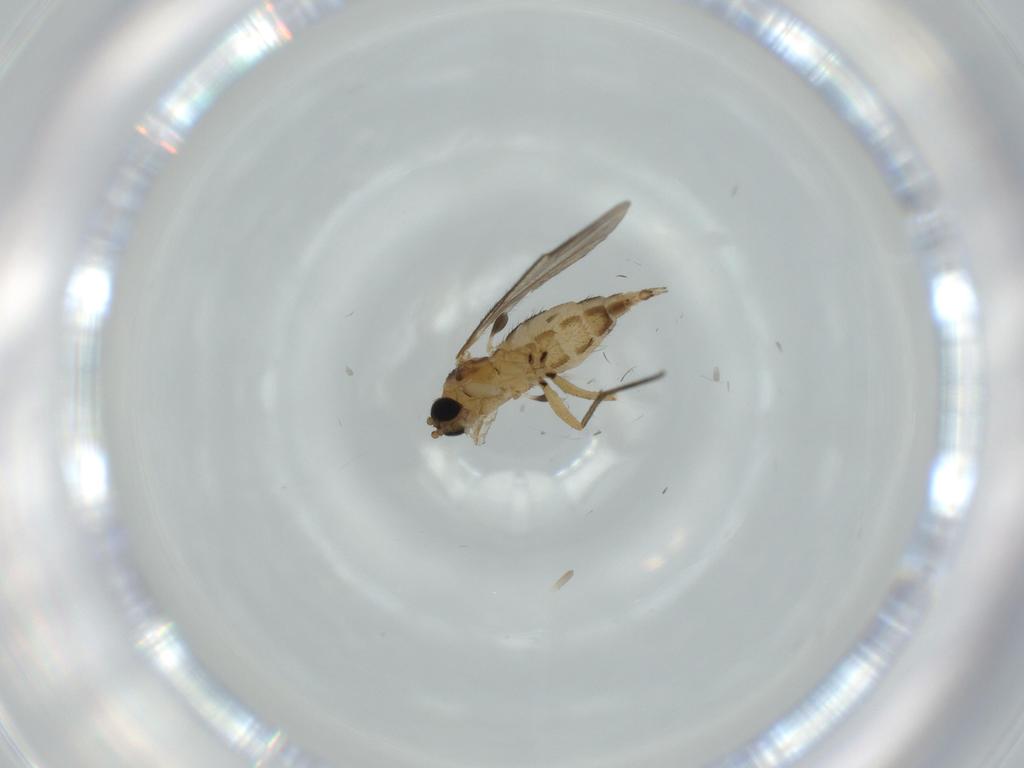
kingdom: Animalia
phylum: Arthropoda
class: Insecta
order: Diptera
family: Sciaridae
